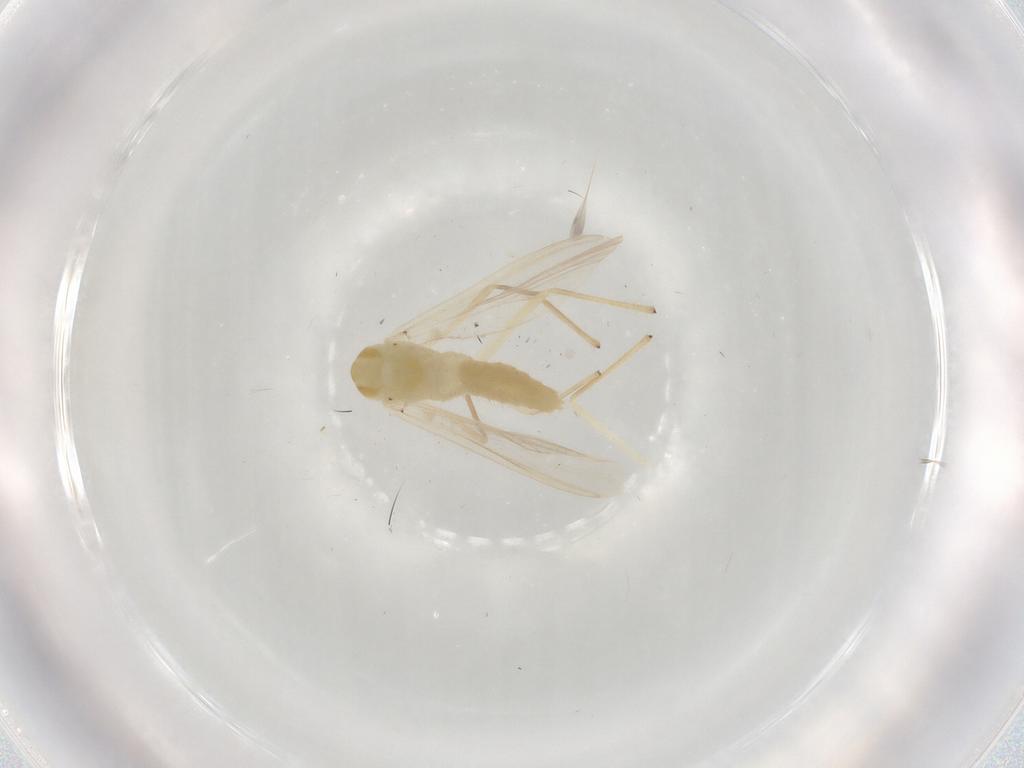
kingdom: Animalia
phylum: Arthropoda
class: Insecta
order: Diptera
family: Chironomidae
